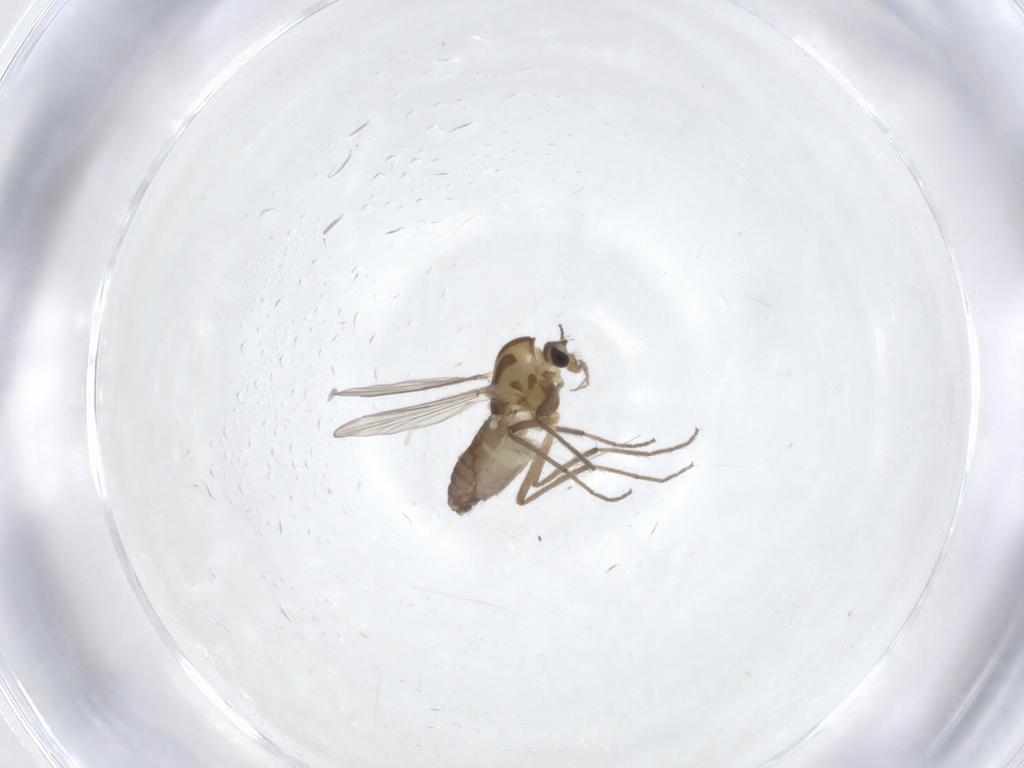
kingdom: Animalia
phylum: Arthropoda
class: Insecta
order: Diptera
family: Chironomidae
